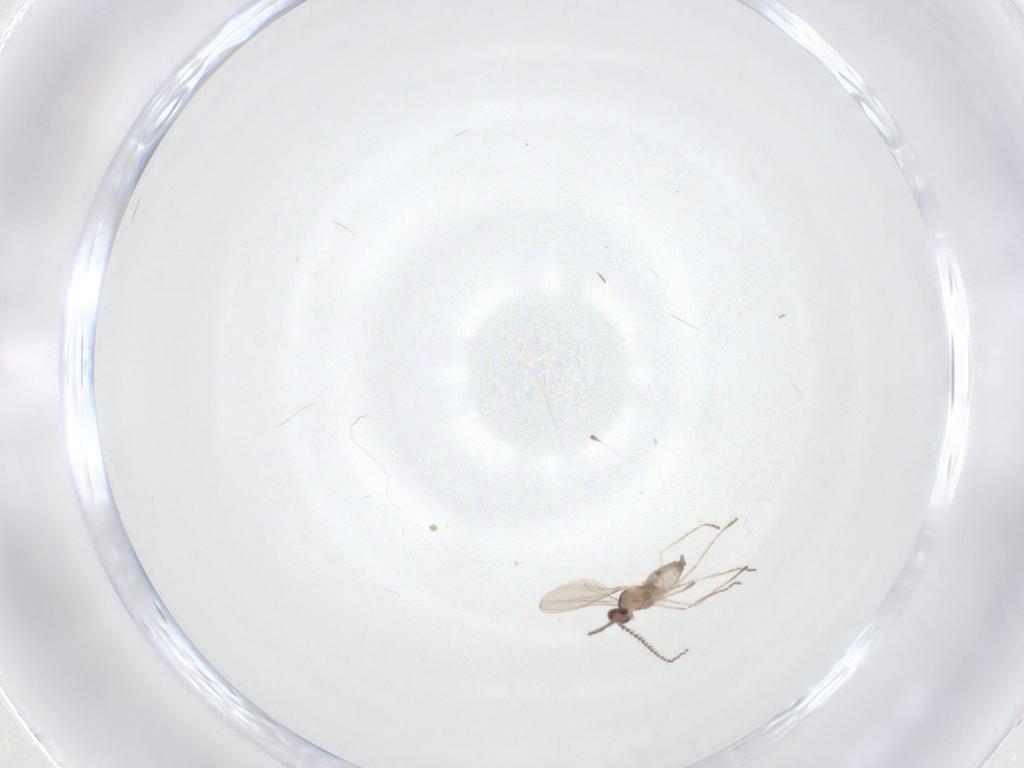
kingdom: Animalia
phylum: Arthropoda
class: Insecta
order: Diptera
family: Cecidomyiidae
